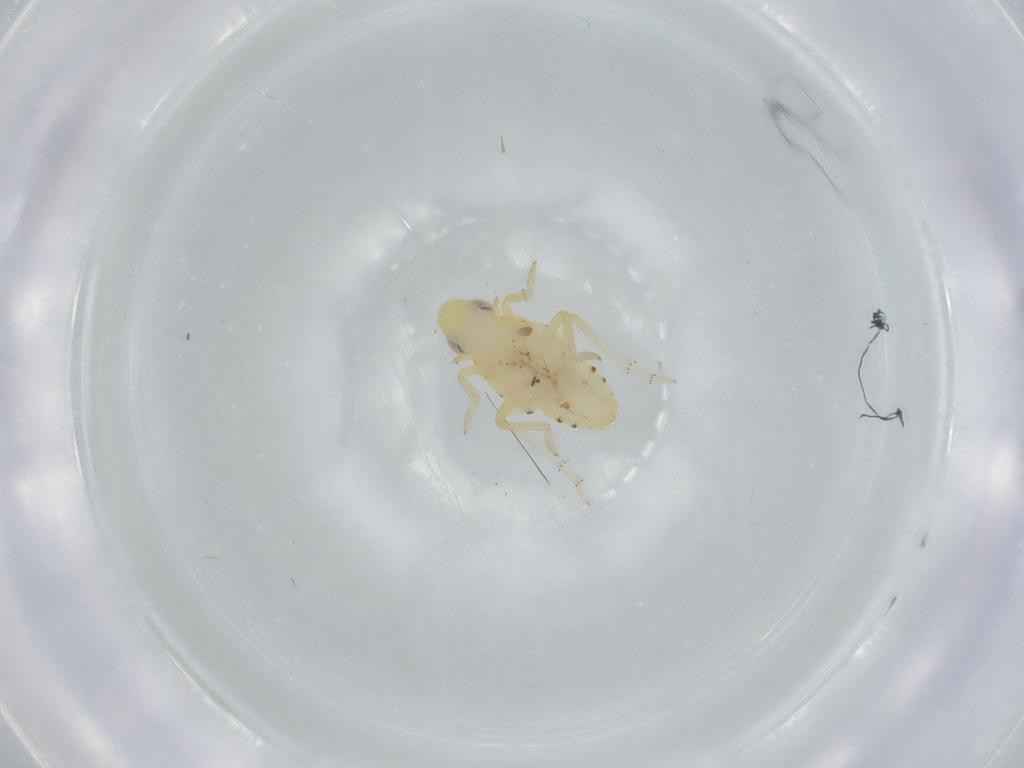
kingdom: Animalia
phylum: Arthropoda
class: Insecta
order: Hemiptera
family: Tropiduchidae
